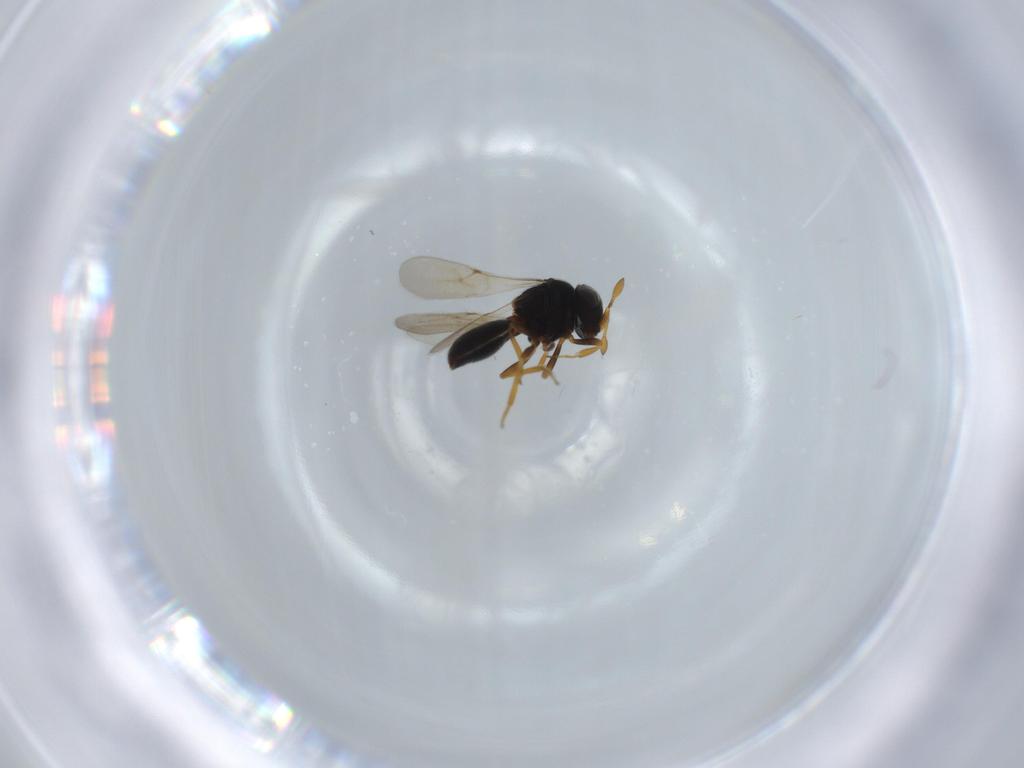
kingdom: Animalia
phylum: Arthropoda
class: Insecta
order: Hymenoptera
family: Scelionidae
